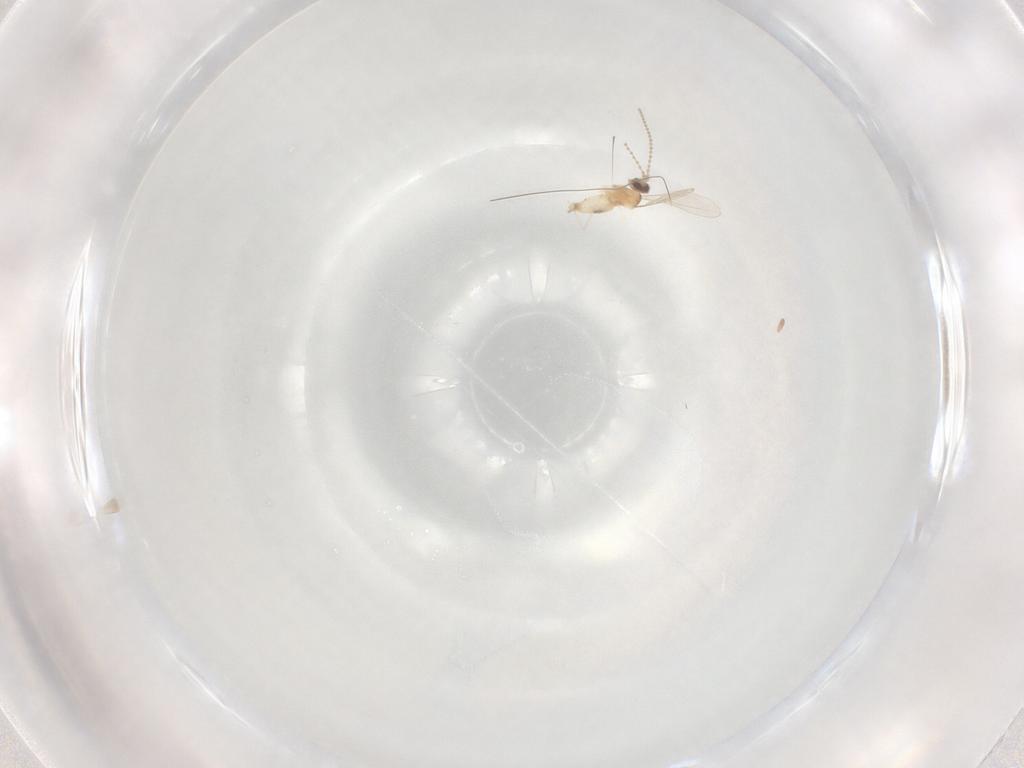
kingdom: Animalia
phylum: Arthropoda
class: Insecta
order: Diptera
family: Cecidomyiidae
